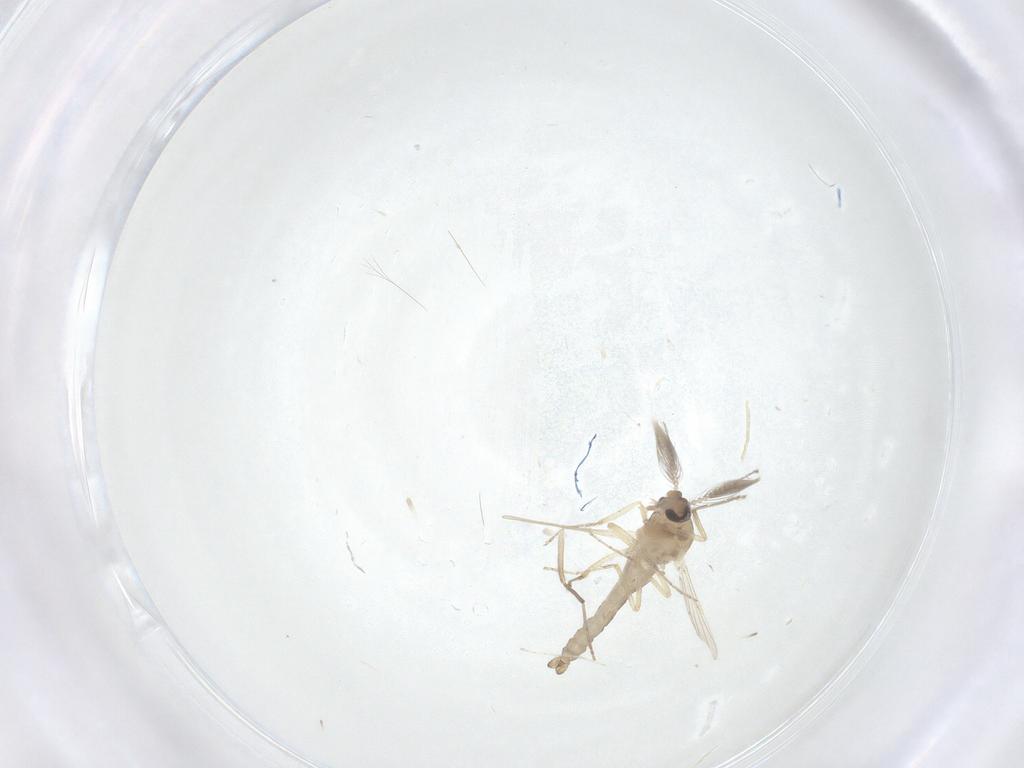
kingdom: Animalia
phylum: Arthropoda
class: Insecta
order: Diptera
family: Ceratopogonidae
